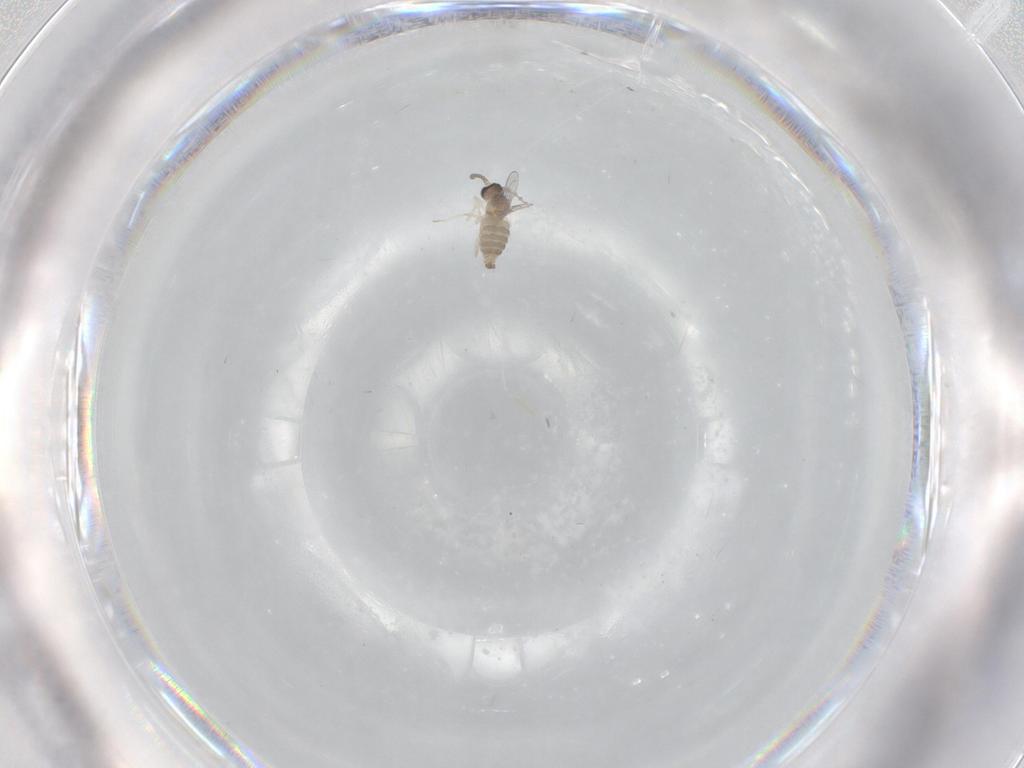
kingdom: Animalia
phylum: Arthropoda
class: Insecta
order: Diptera
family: Cecidomyiidae
